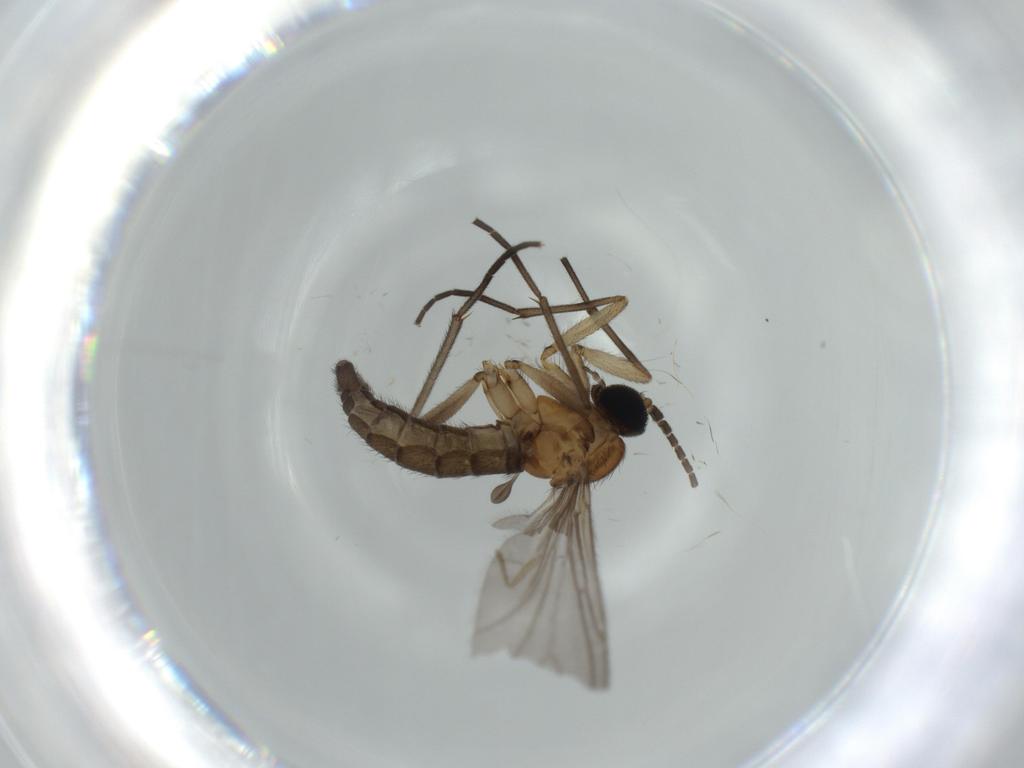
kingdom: Animalia
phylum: Arthropoda
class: Insecta
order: Diptera
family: Sciaridae
